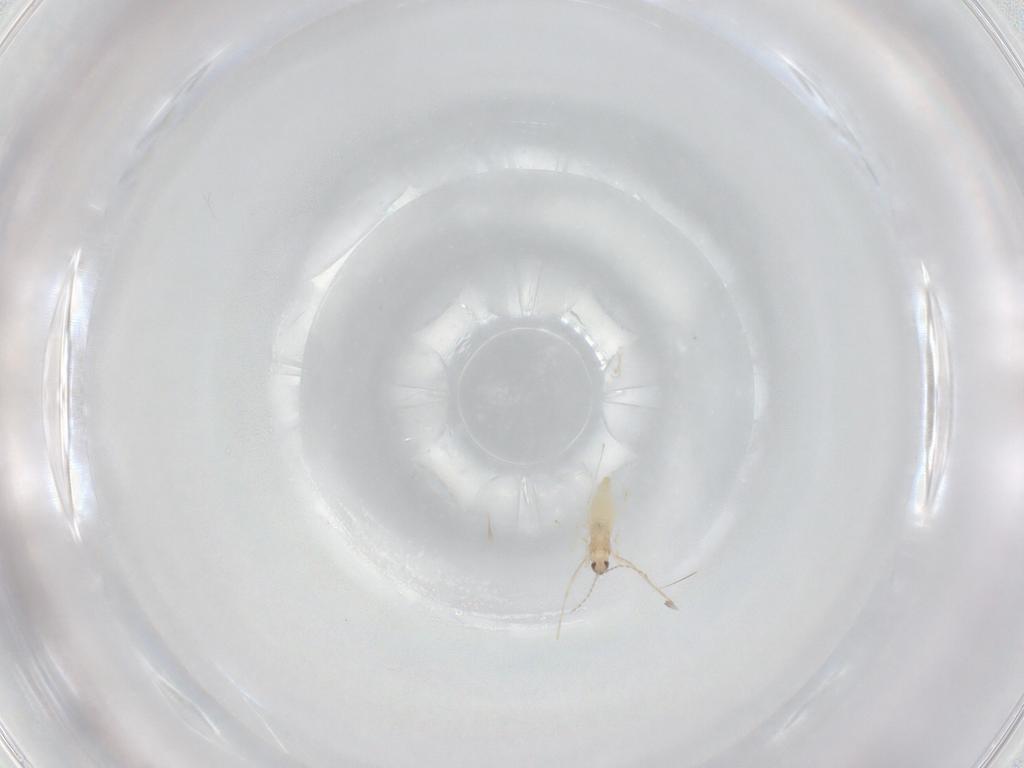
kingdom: Animalia
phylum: Arthropoda
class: Insecta
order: Diptera
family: Cecidomyiidae
